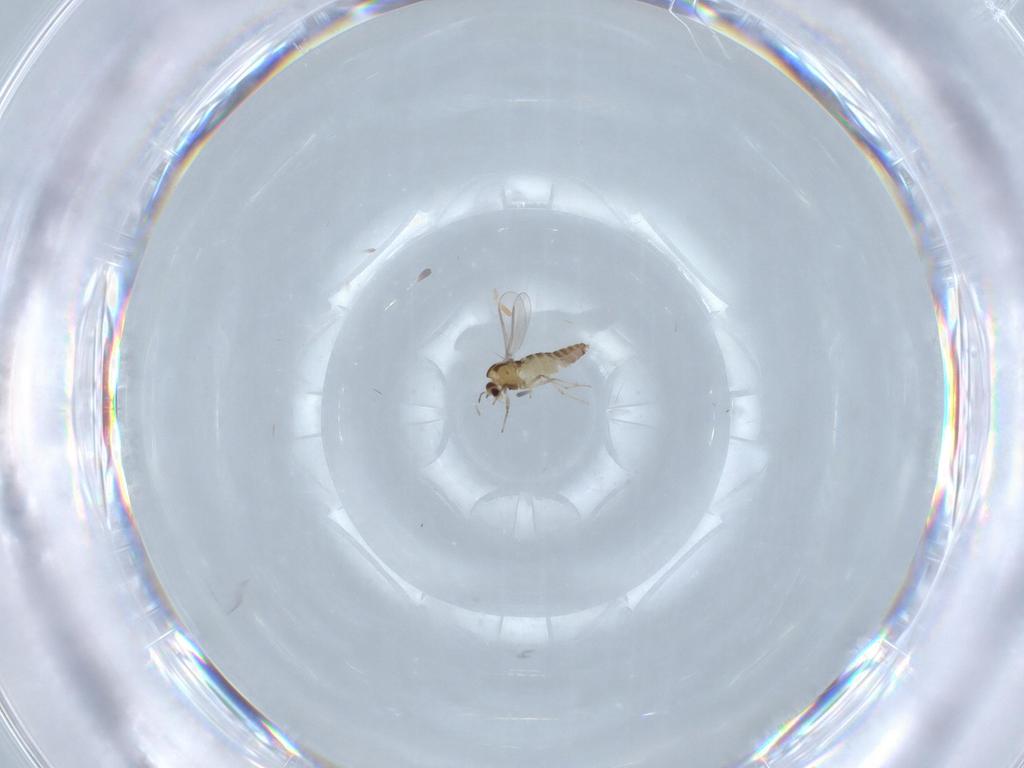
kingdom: Animalia
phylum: Arthropoda
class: Insecta
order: Diptera
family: Chironomidae
